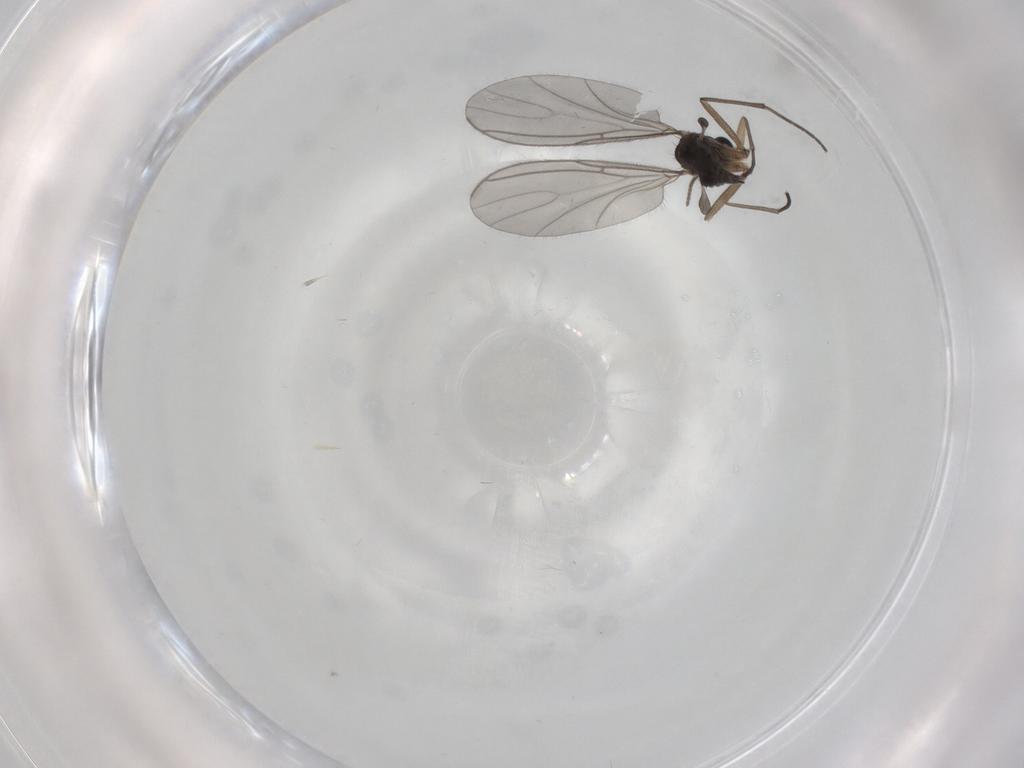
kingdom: Animalia
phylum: Arthropoda
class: Insecta
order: Diptera
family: Sciaridae
